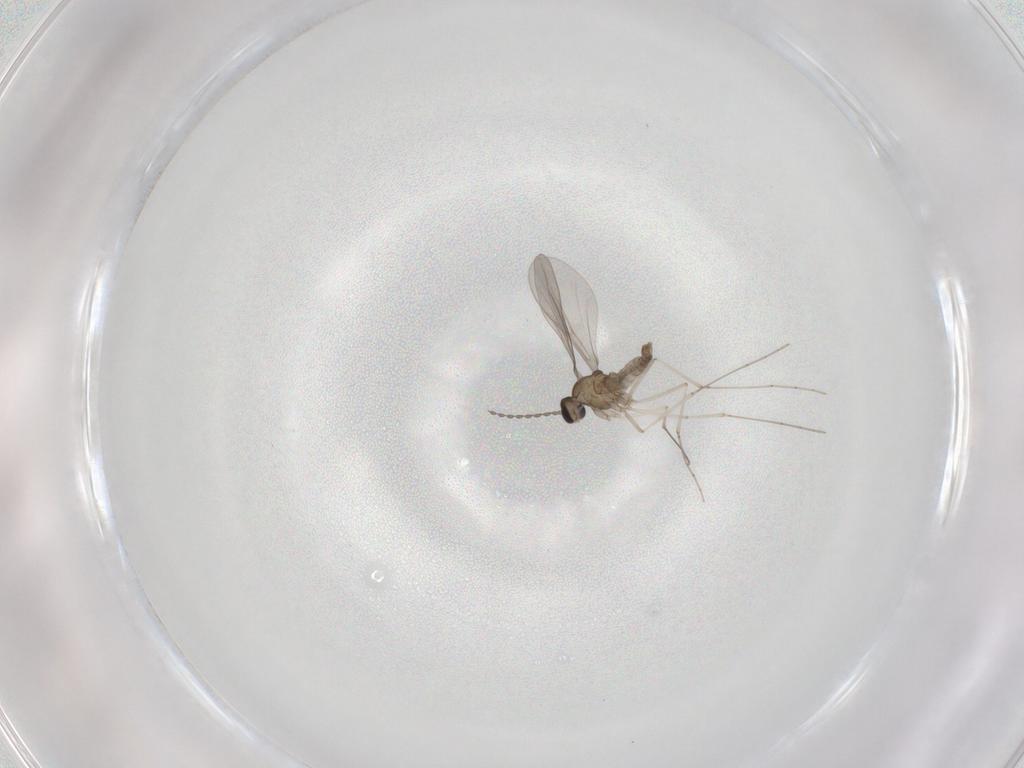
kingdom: Animalia
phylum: Arthropoda
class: Insecta
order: Diptera
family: Cecidomyiidae
